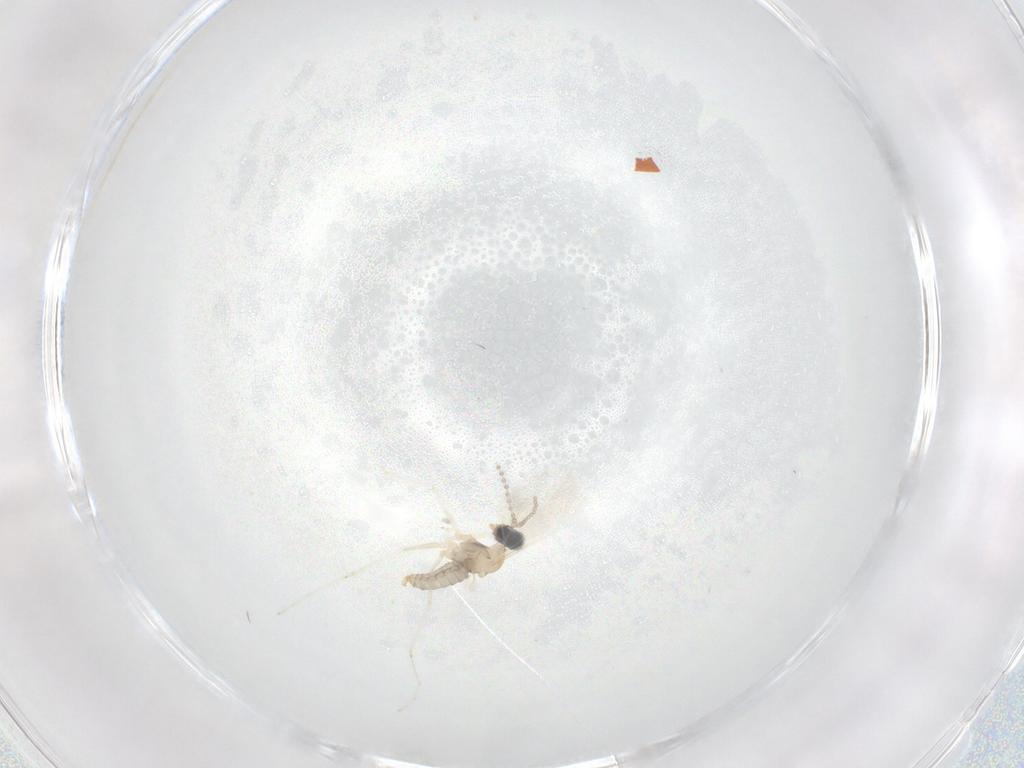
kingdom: Animalia
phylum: Arthropoda
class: Insecta
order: Diptera
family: Cecidomyiidae
